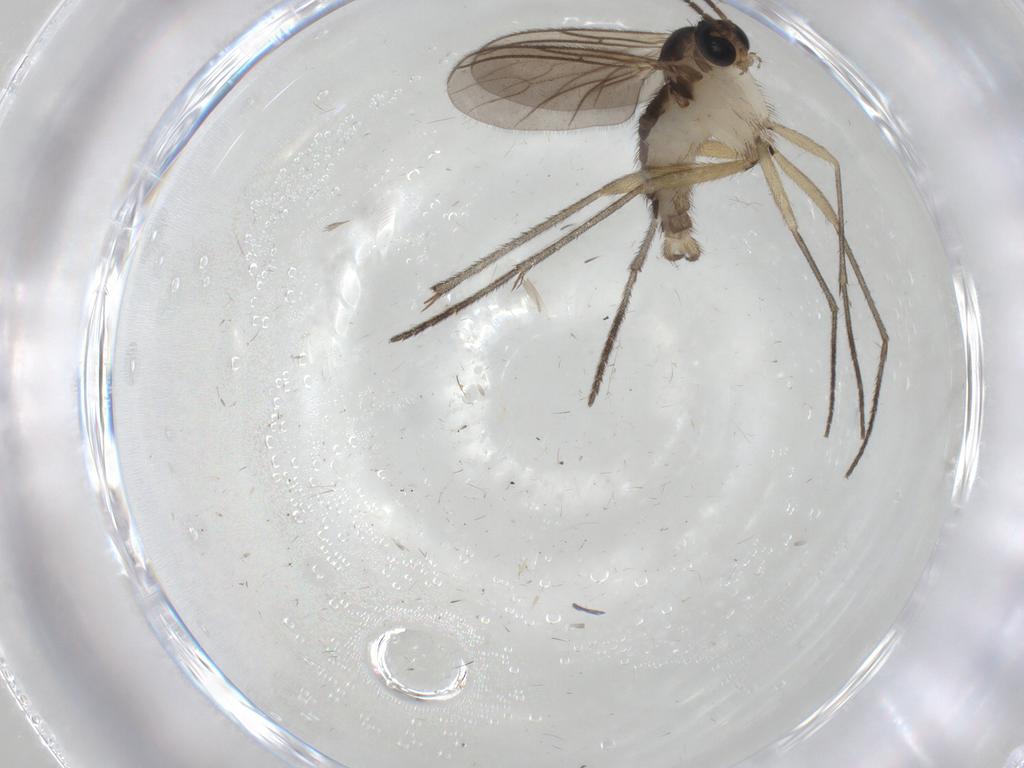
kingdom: Animalia
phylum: Arthropoda
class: Insecta
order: Diptera
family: Sciaridae
